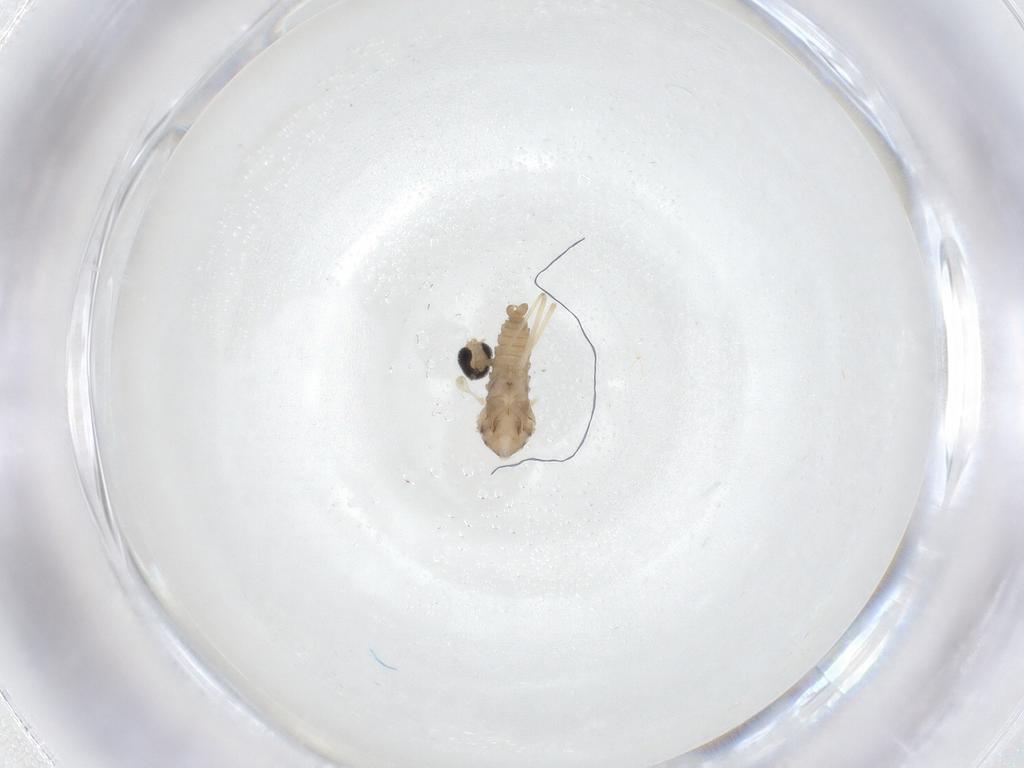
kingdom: Animalia
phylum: Arthropoda
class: Insecta
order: Diptera
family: Cecidomyiidae
